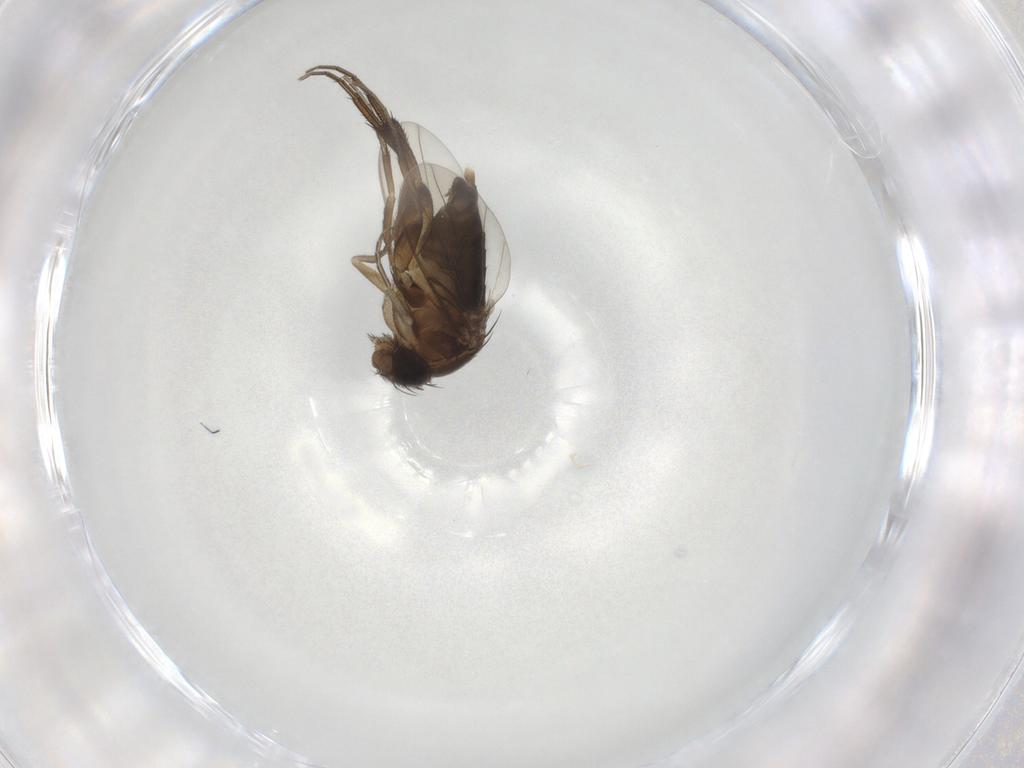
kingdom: Animalia
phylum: Arthropoda
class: Insecta
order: Diptera
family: Phoridae
